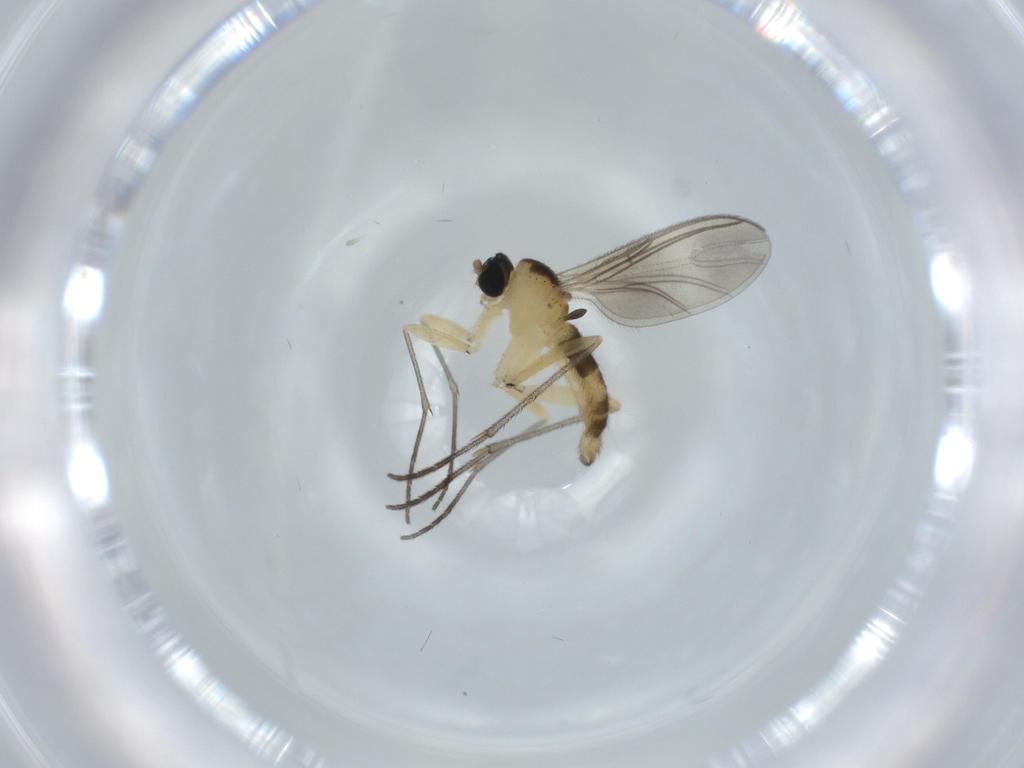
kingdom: Animalia
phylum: Arthropoda
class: Insecta
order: Diptera
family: Sciaridae
